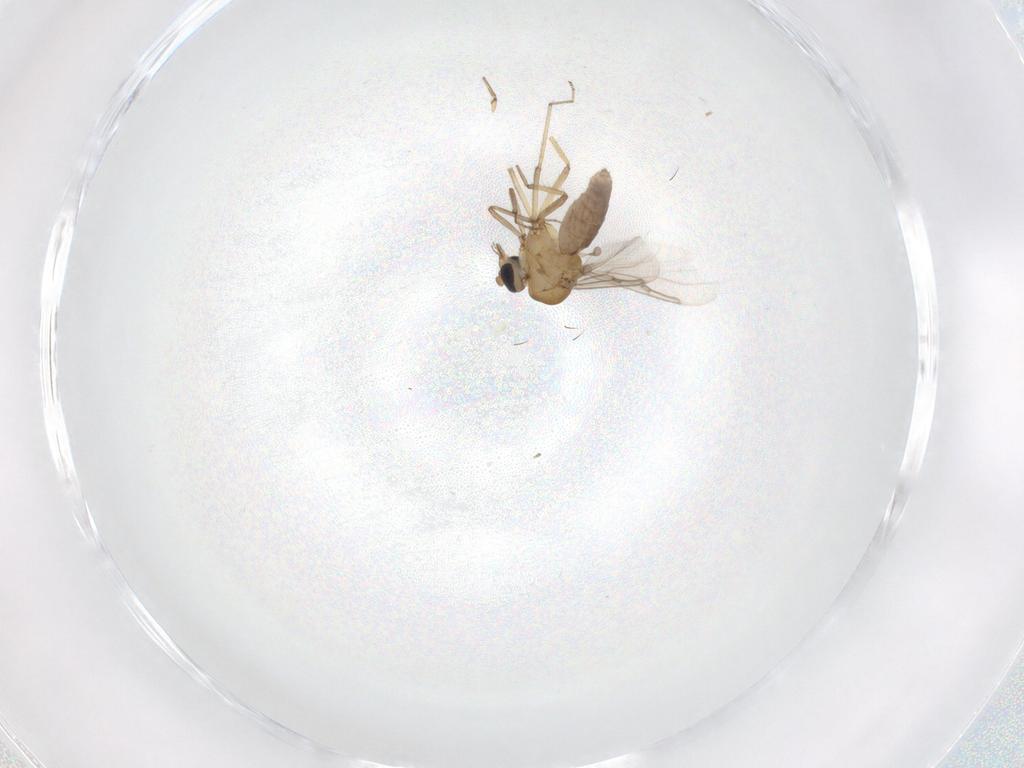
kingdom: Animalia
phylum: Arthropoda
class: Insecta
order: Diptera
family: Ceratopogonidae
